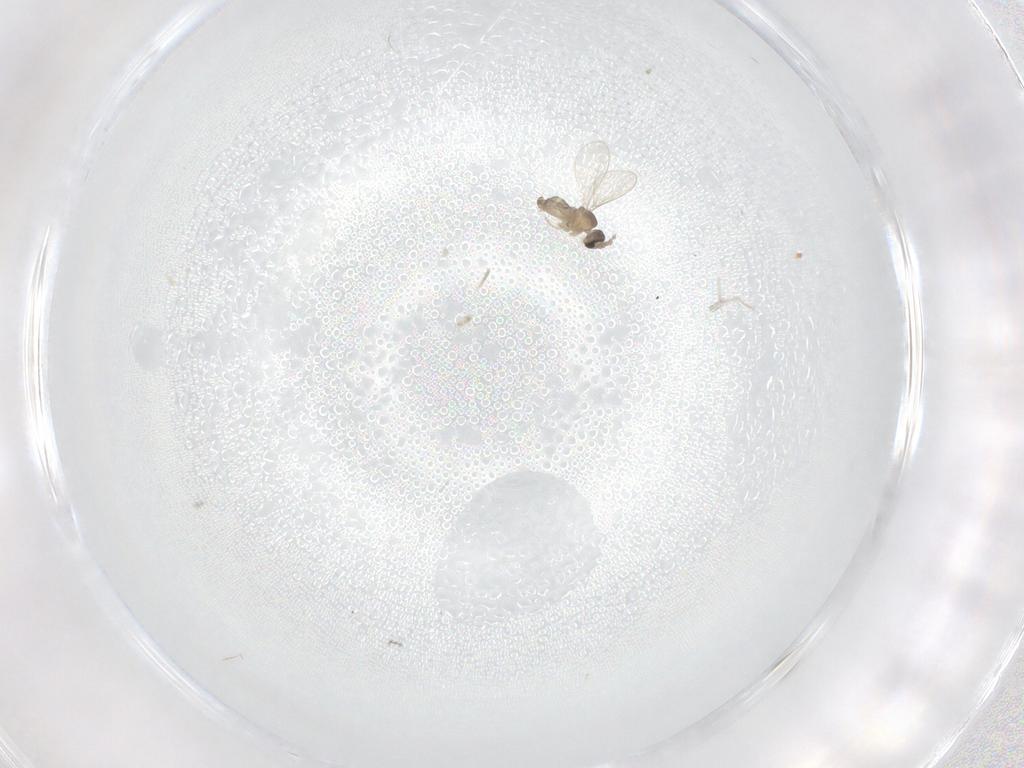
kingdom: Animalia
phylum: Arthropoda
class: Insecta
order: Diptera
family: Cecidomyiidae
